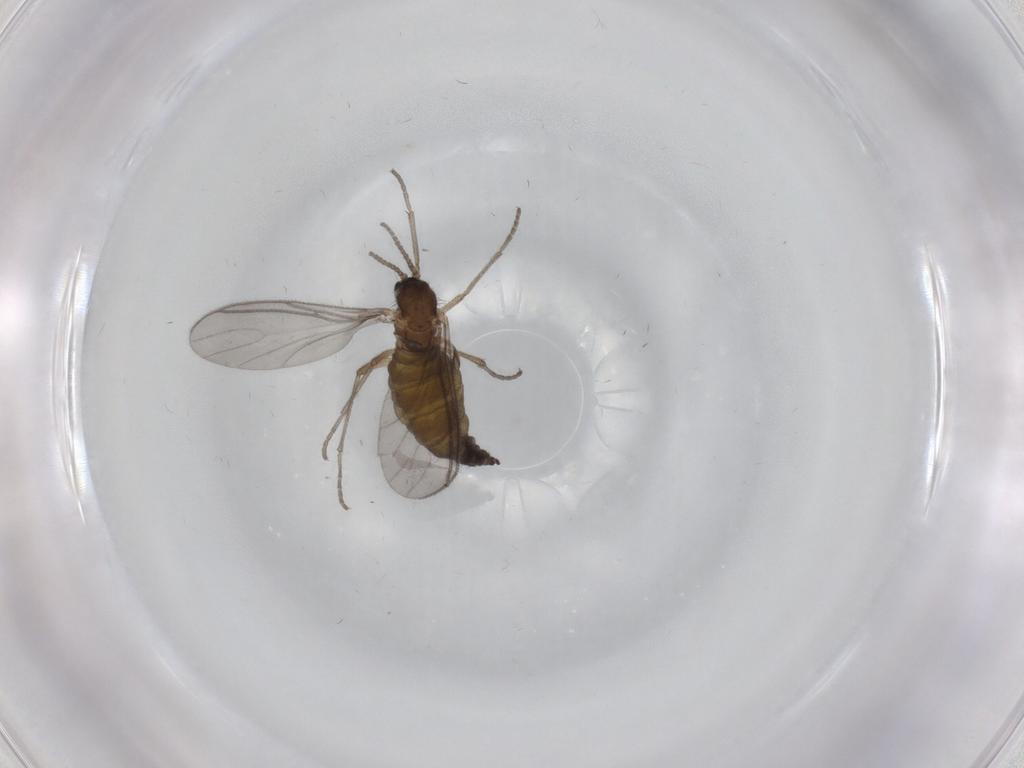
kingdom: Animalia
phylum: Arthropoda
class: Insecta
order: Diptera
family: Sciaridae
